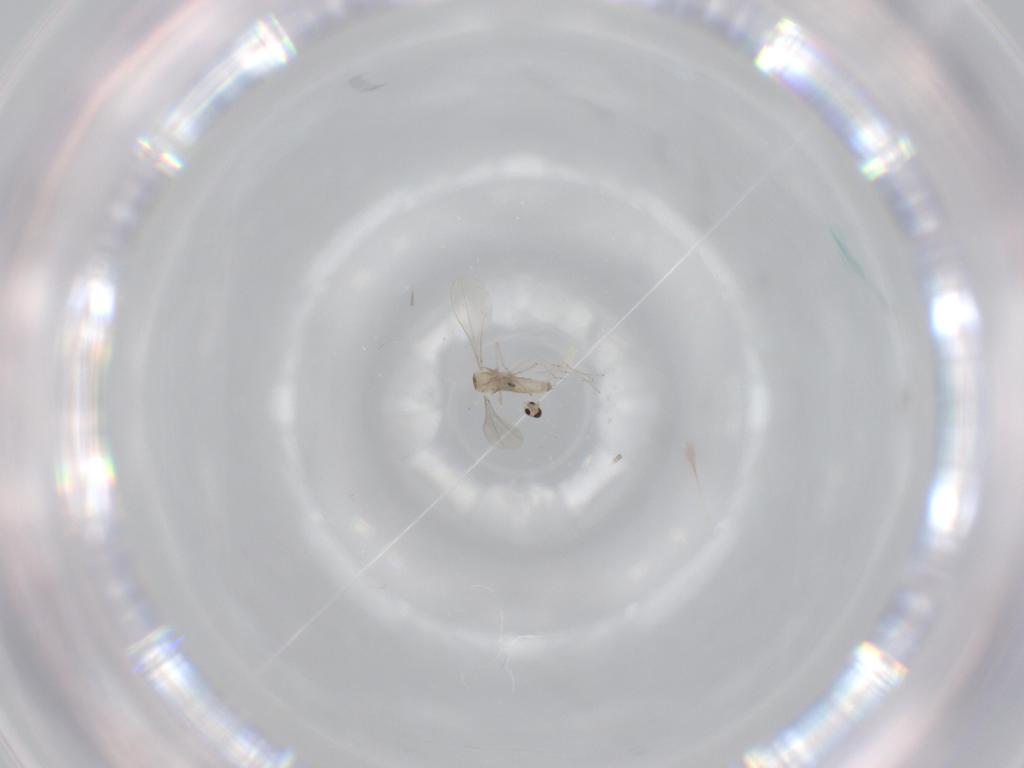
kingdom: Animalia
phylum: Arthropoda
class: Insecta
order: Diptera
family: Cecidomyiidae
